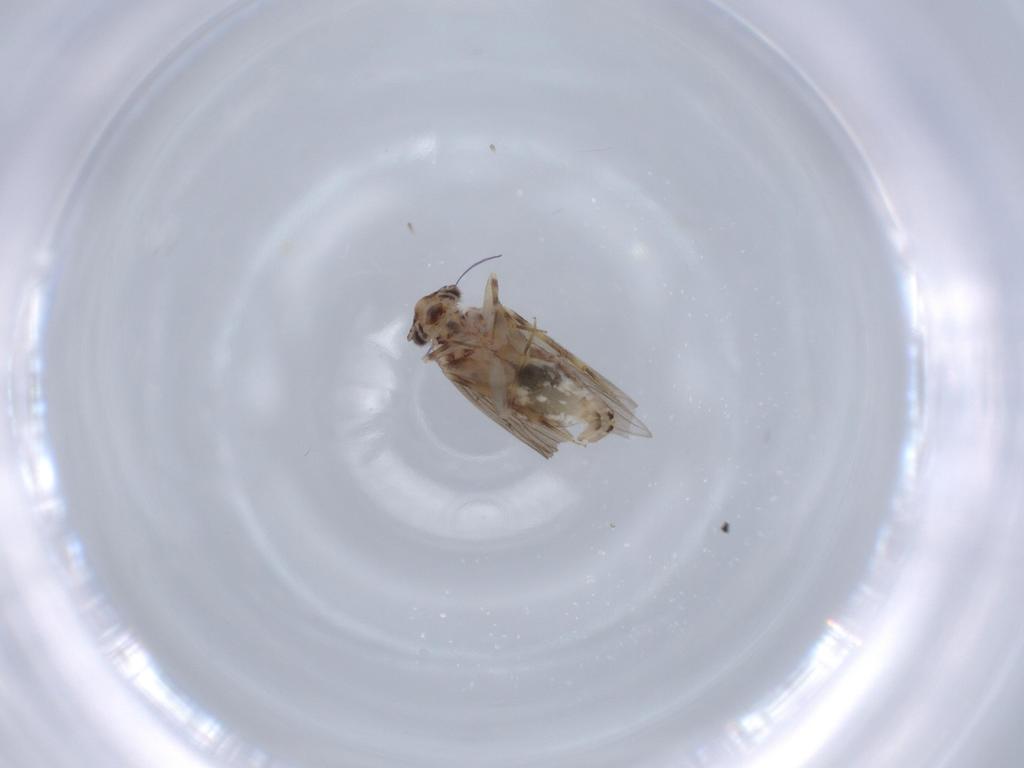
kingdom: Animalia
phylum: Arthropoda
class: Insecta
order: Psocodea
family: Lepidopsocidae
